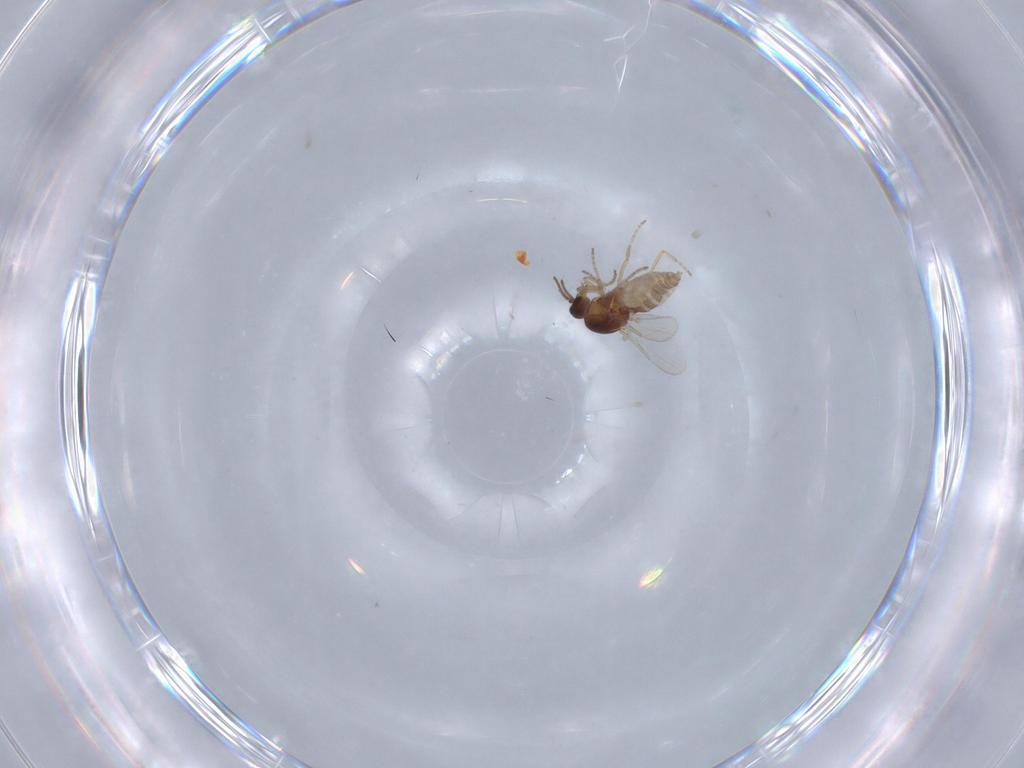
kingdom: Animalia
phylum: Arthropoda
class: Insecta
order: Diptera
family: Ceratopogonidae
